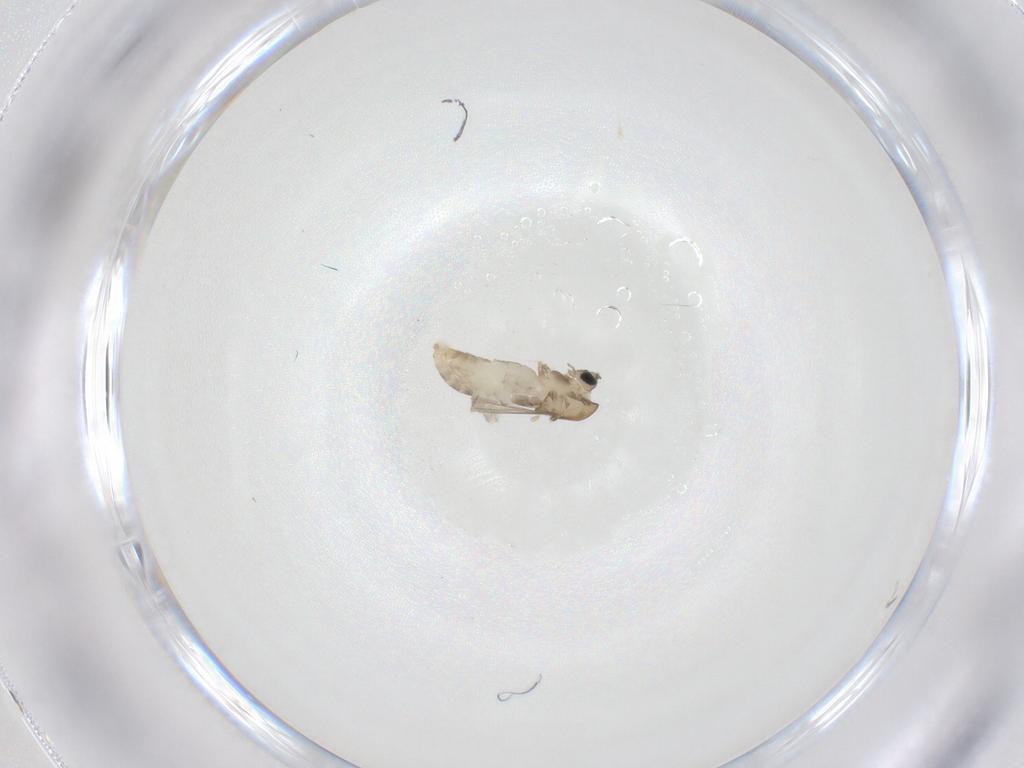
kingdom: Animalia
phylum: Arthropoda
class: Insecta
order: Diptera
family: Chironomidae
